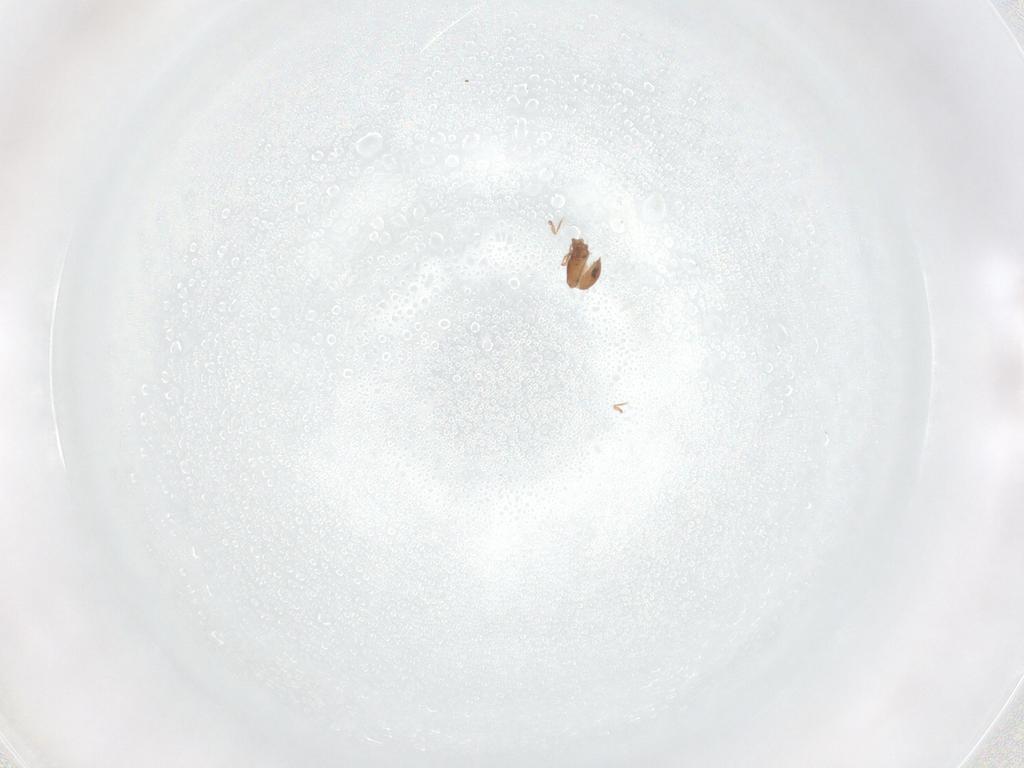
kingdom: Animalia
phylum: Arthropoda
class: Arachnida
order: Sarcoptiformes
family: Oribatulidae
